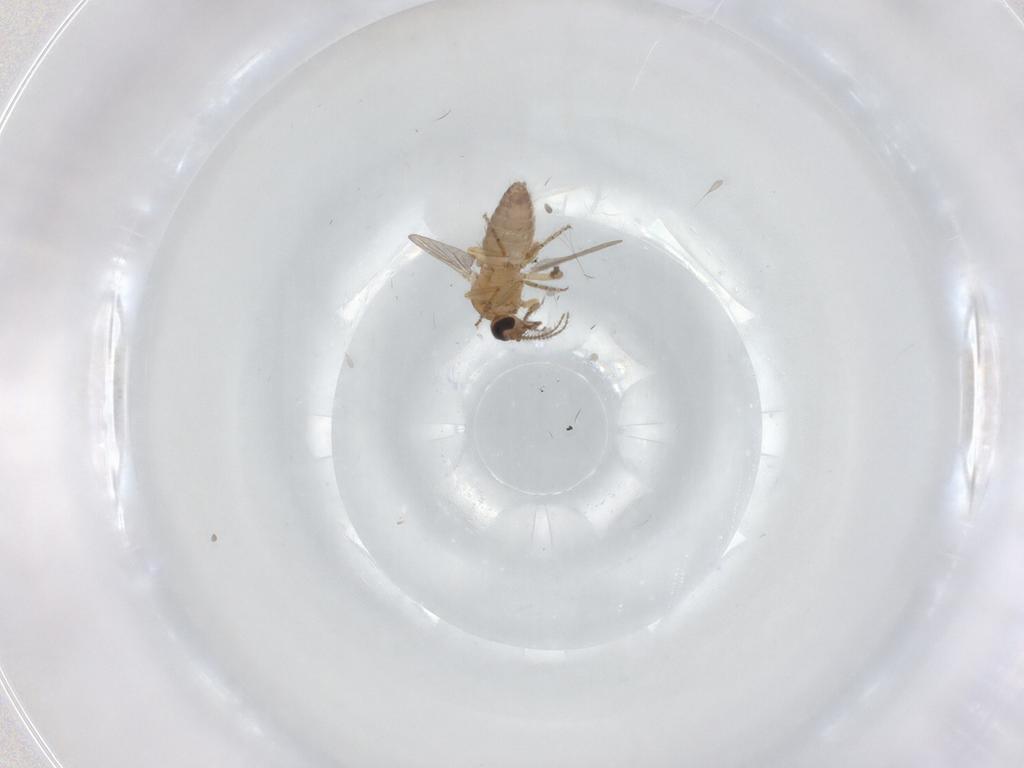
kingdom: Animalia
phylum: Arthropoda
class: Insecta
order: Diptera
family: Ceratopogonidae
